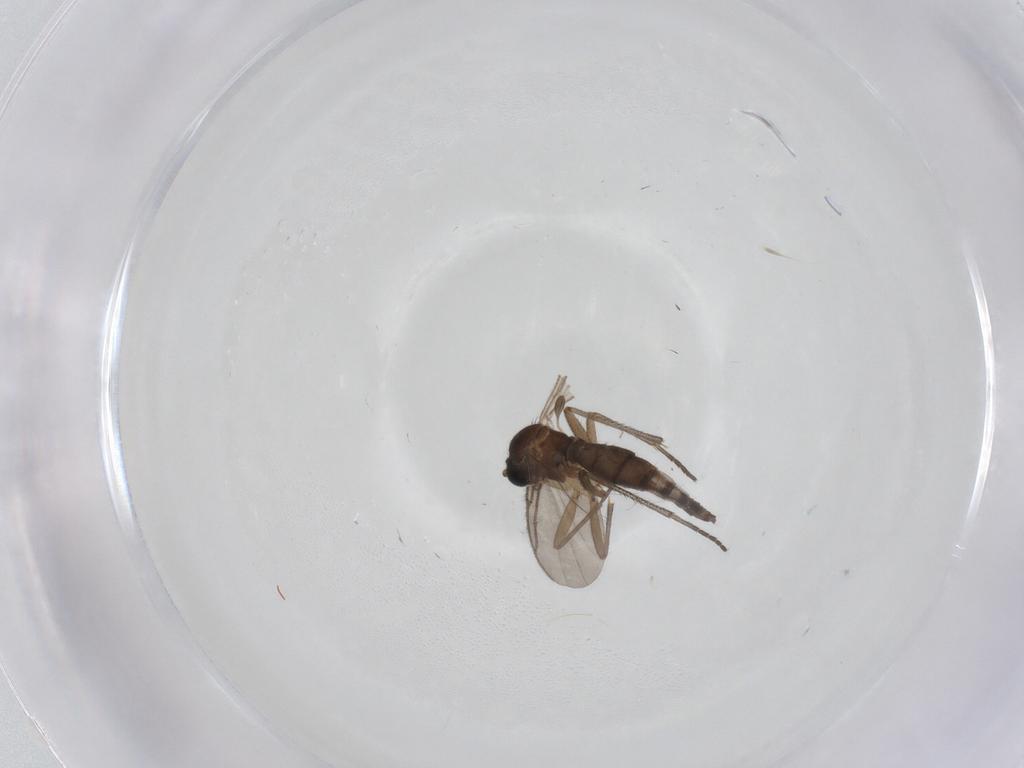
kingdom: Animalia
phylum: Arthropoda
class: Insecta
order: Diptera
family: Sciaridae
